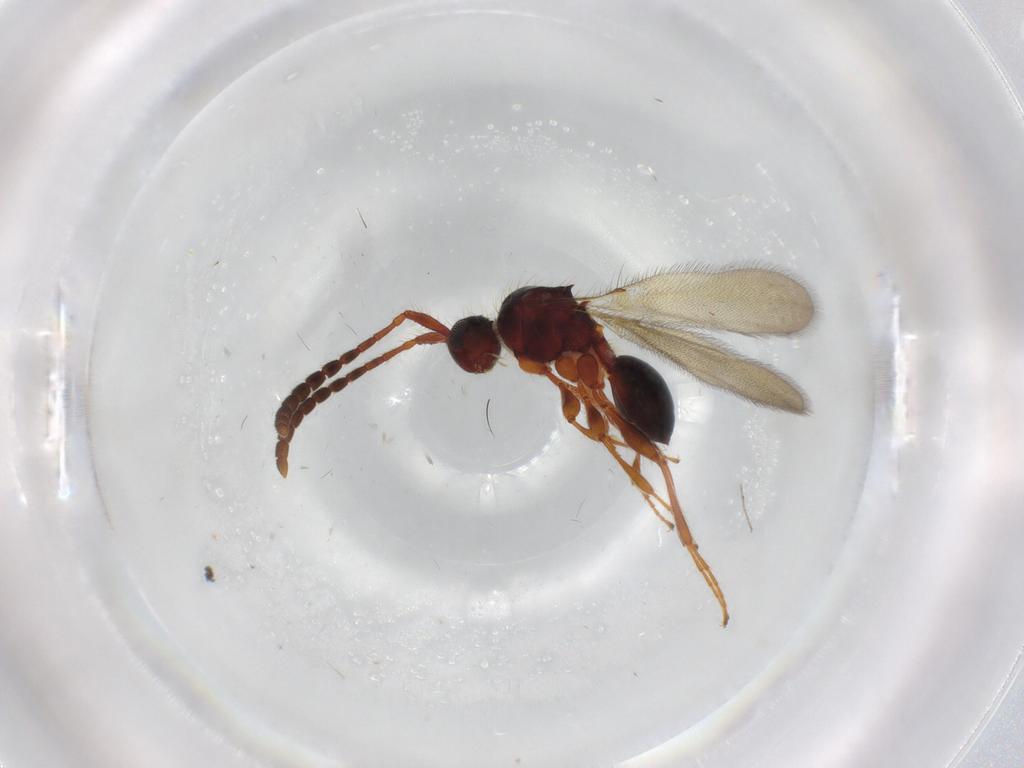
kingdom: Animalia
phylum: Arthropoda
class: Insecta
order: Hymenoptera
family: Diapriidae
